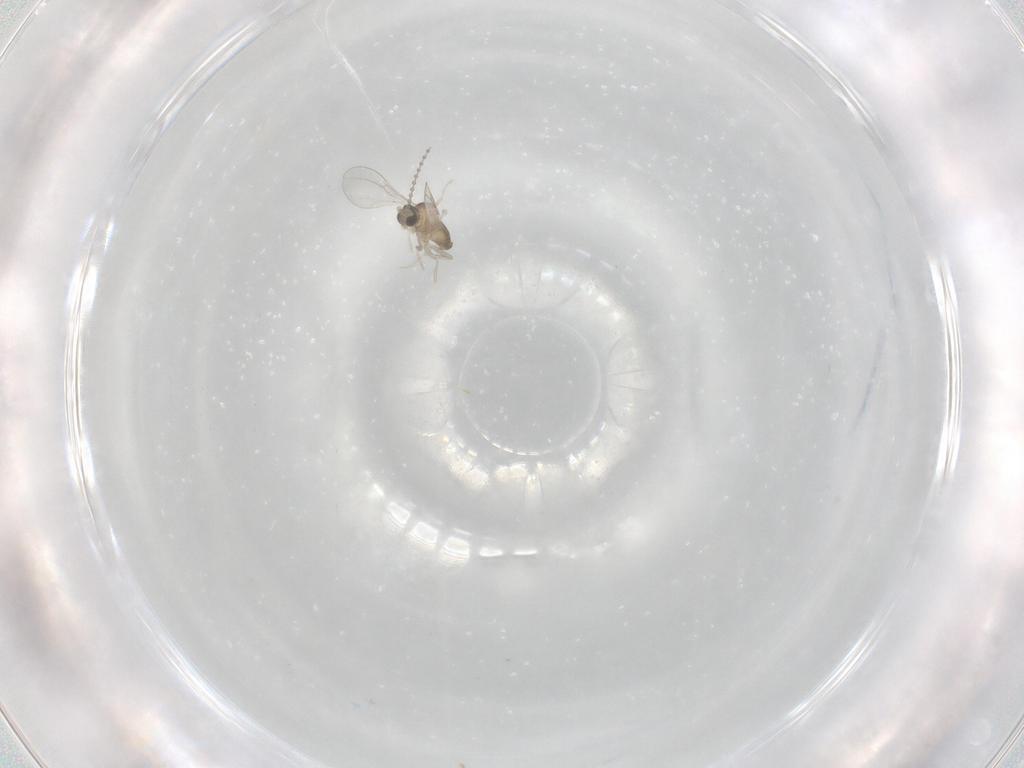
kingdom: Animalia
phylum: Arthropoda
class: Insecta
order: Diptera
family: Cecidomyiidae
